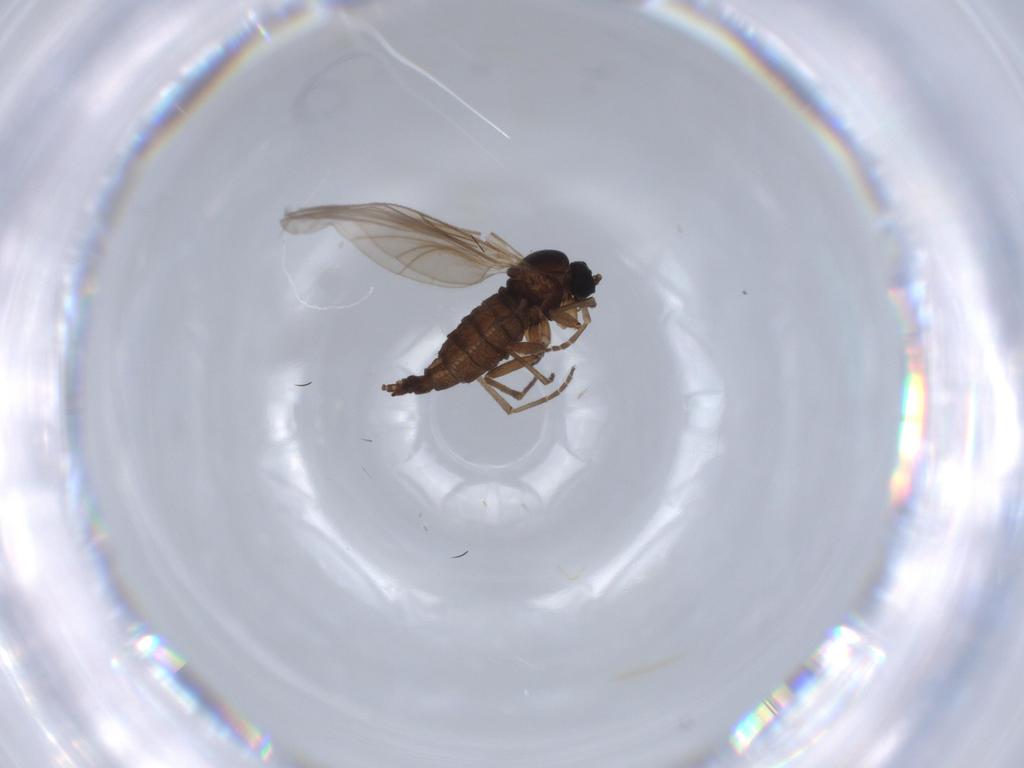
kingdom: Animalia
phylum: Arthropoda
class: Insecta
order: Diptera
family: Sciaridae
